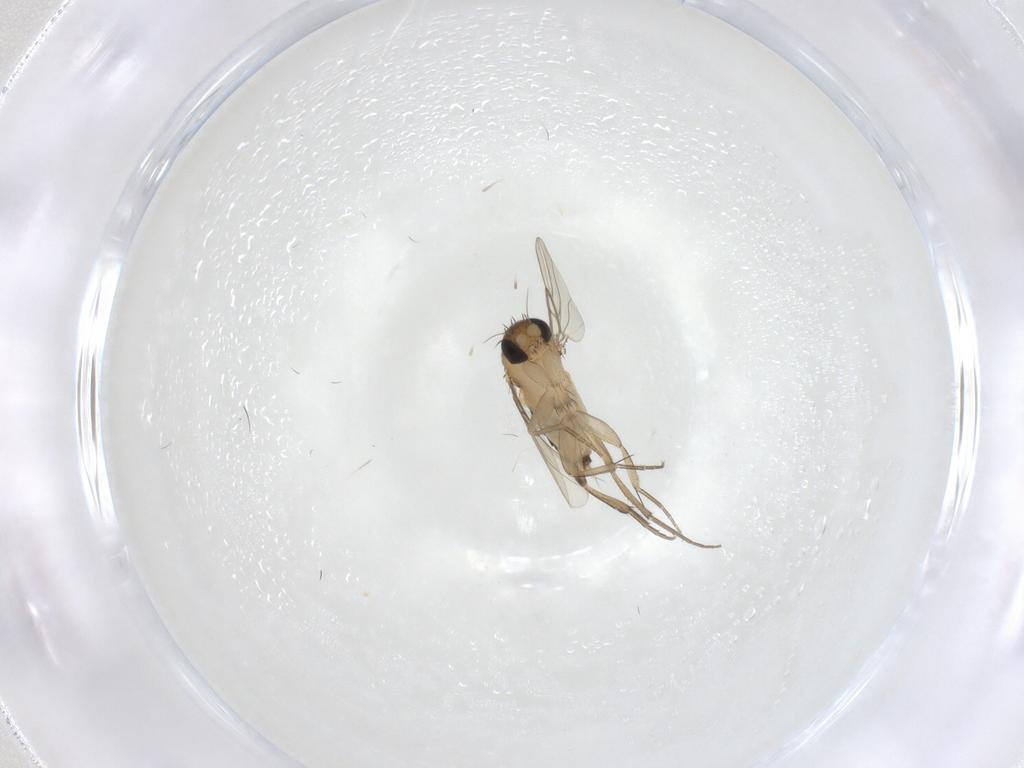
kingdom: Animalia
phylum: Arthropoda
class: Insecta
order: Diptera
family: Phoridae
